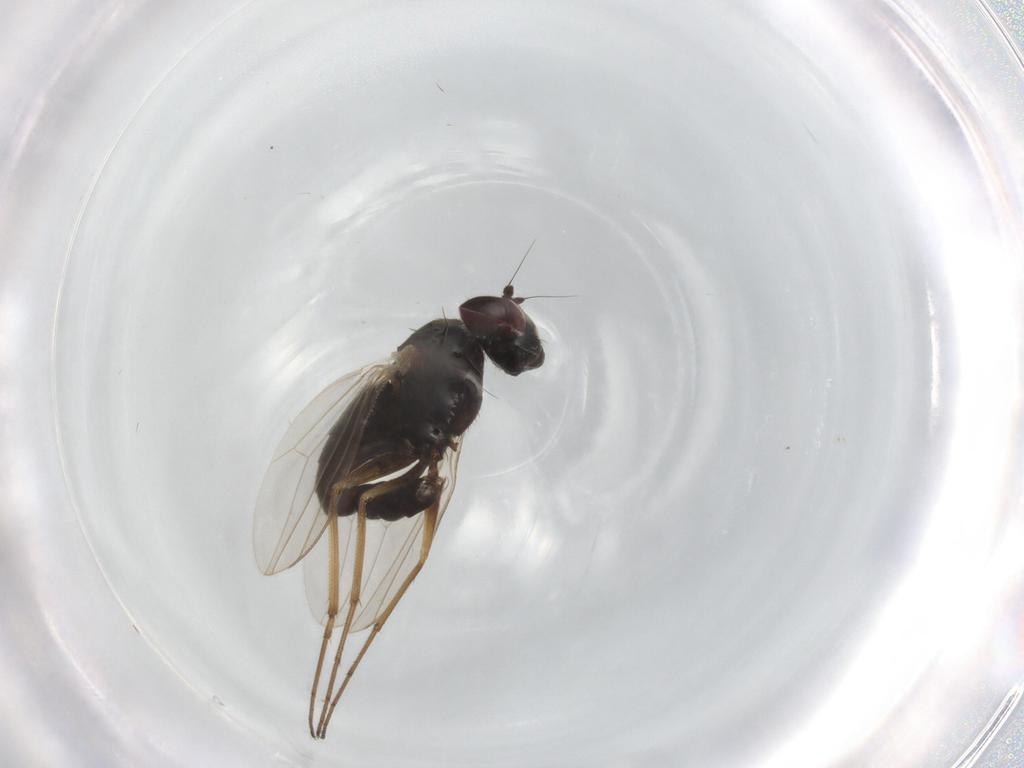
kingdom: Animalia
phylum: Arthropoda
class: Insecta
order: Diptera
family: Dolichopodidae
